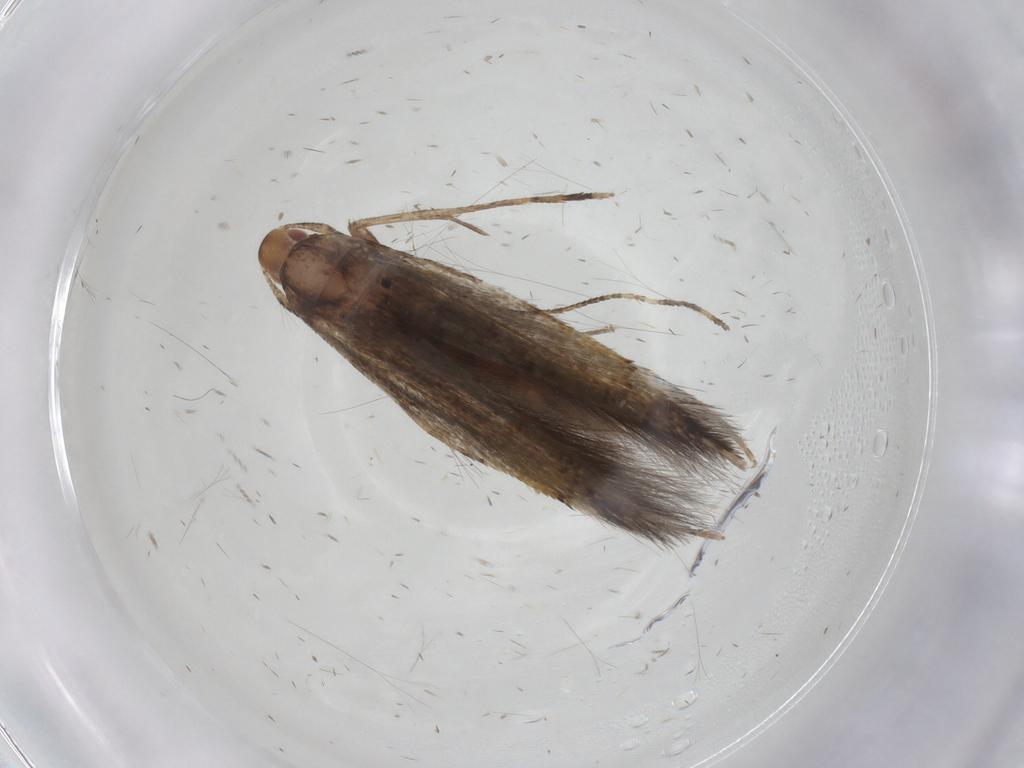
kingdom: Animalia
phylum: Arthropoda
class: Insecta
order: Lepidoptera
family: Cosmopterigidae
